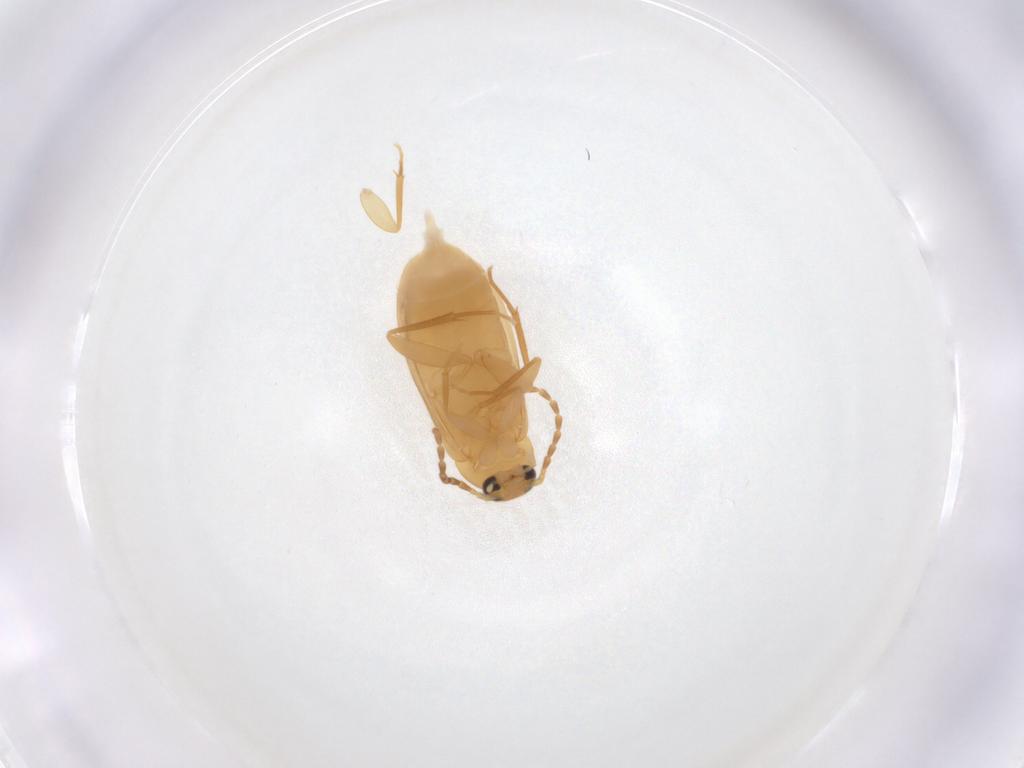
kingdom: Animalia
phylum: Arthropoda
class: Insecta
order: Coleoptera
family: Scraptiidae
